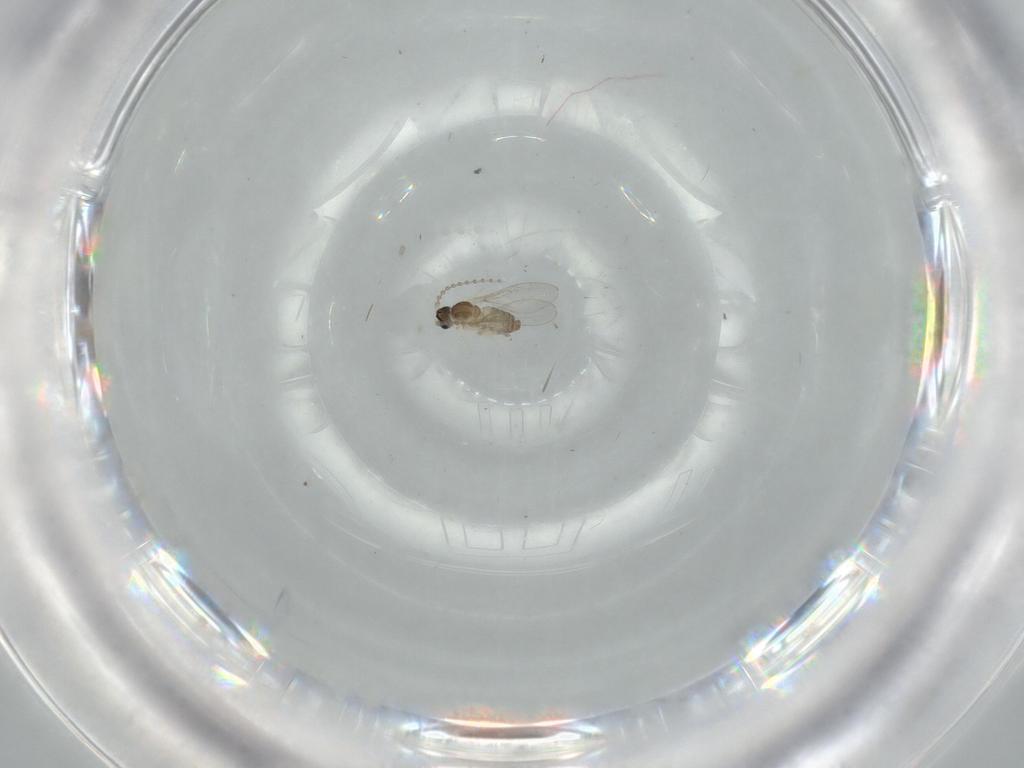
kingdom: Animalia
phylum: Arthropoda
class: Insecta
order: Diptera
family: Cecidomyiidae
